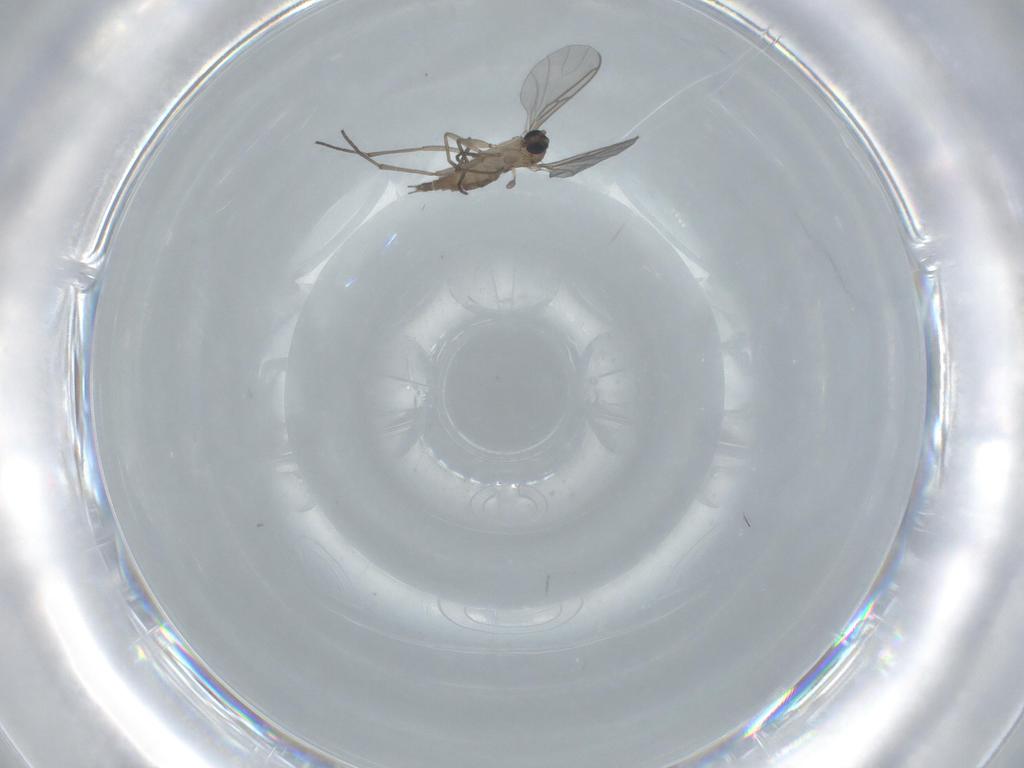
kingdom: Animalia
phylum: Arthropoda
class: Insecta
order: Diptera
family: Sciaridae
